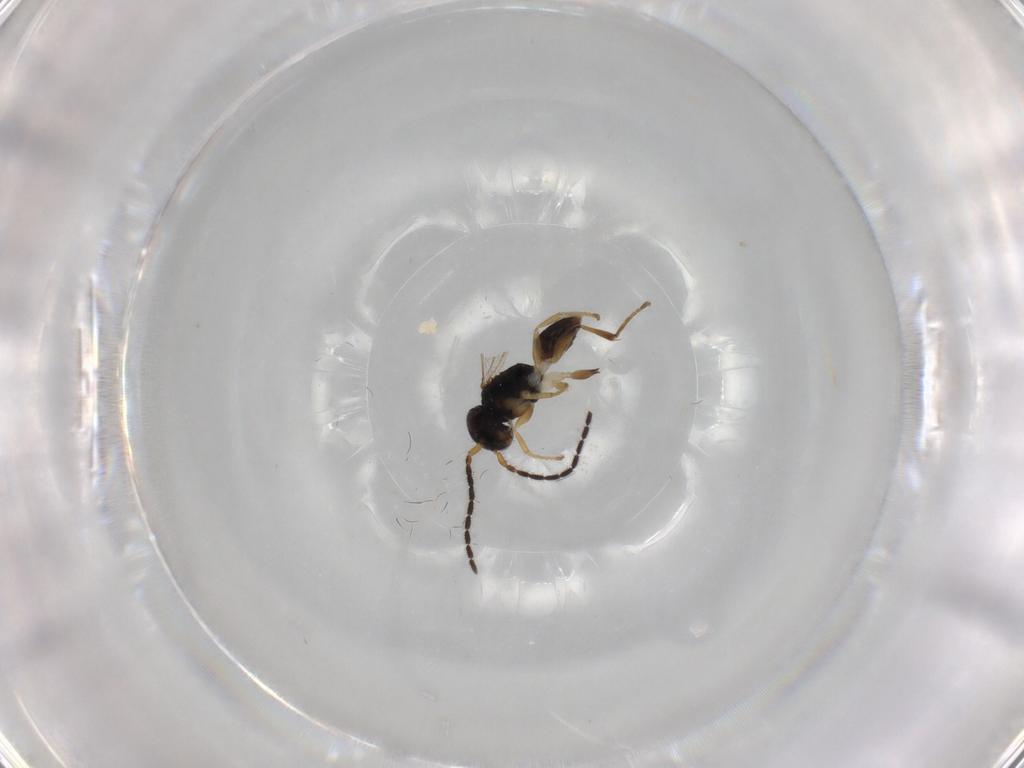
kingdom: Animalia
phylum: Arthropoda
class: Insecta
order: Hymenoptera
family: Dryinidae
